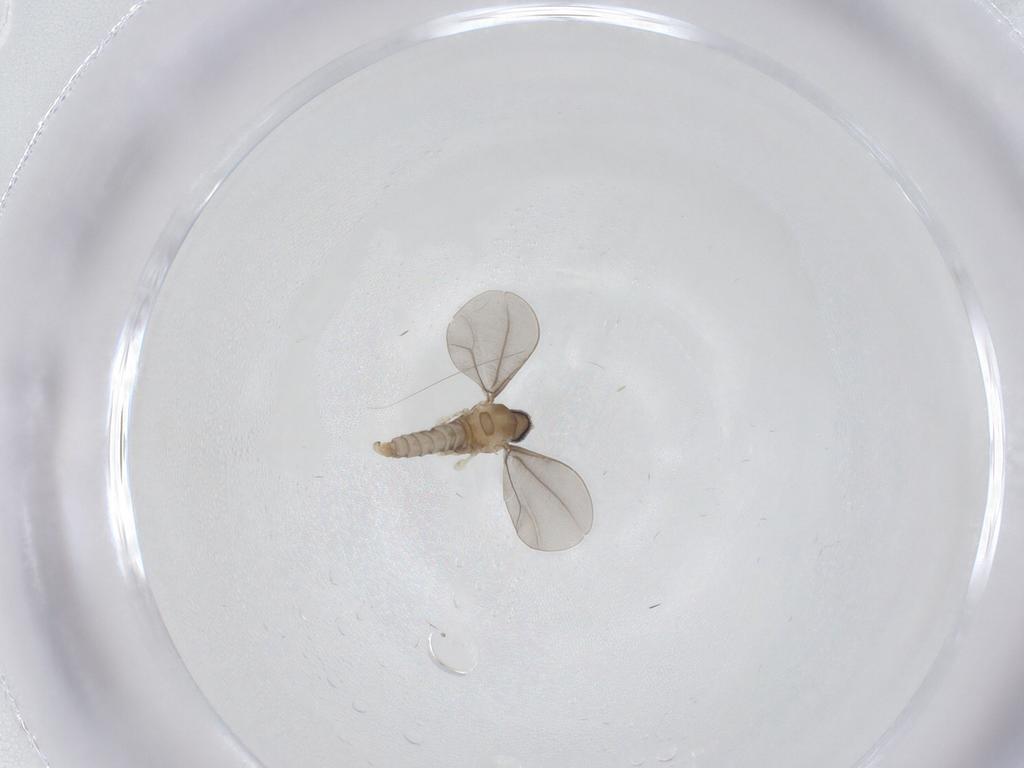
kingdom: Animalia
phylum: Arthropoda
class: Insecta
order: Diptera
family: Cecidomyiidae
